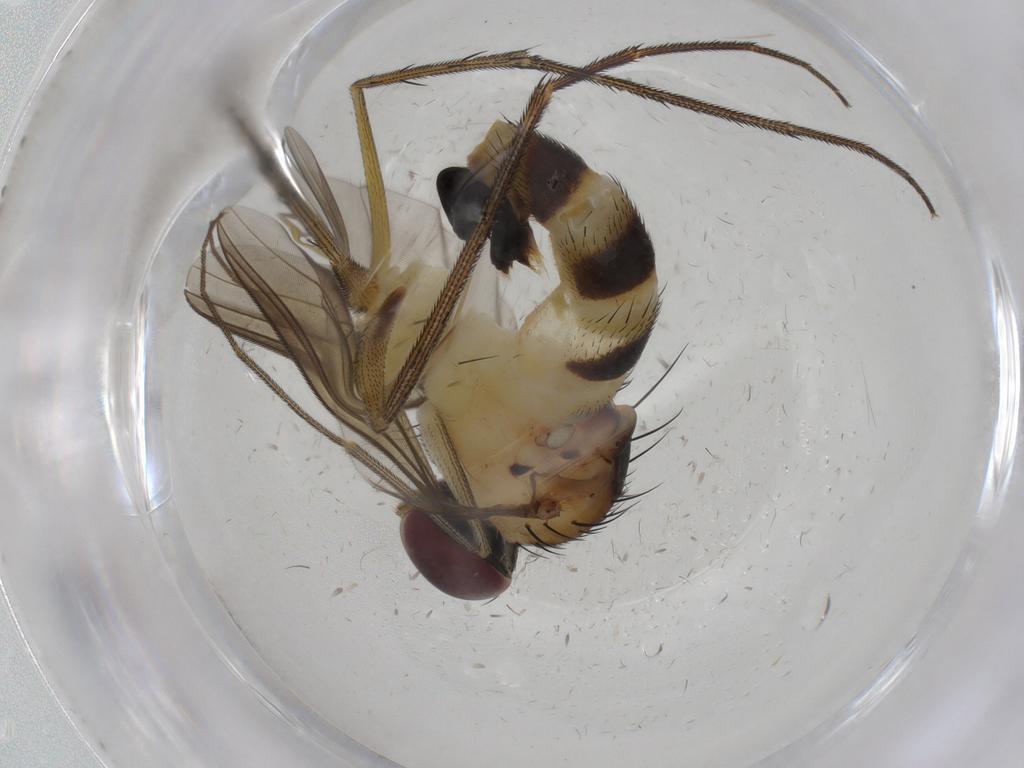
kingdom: Animalia
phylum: Arthropoda
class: Insecta
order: Diptera
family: Dolichopodidae
